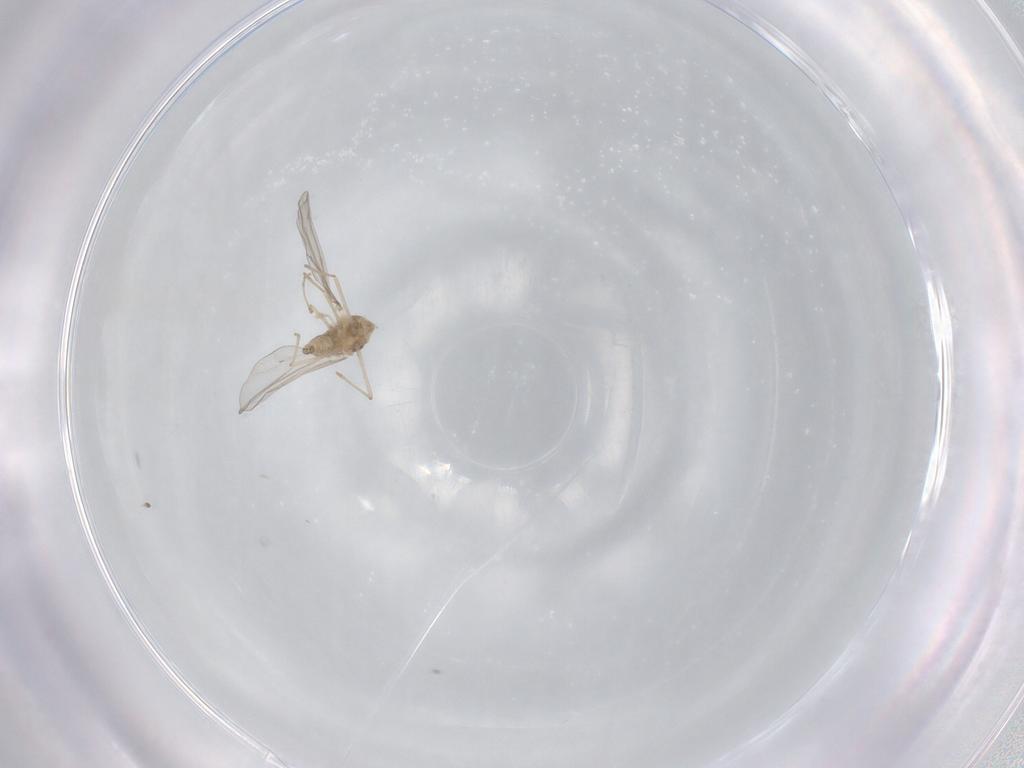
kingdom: Animalia
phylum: Arthropoda
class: Insecta
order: Diptera
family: Cecidomyiidae
